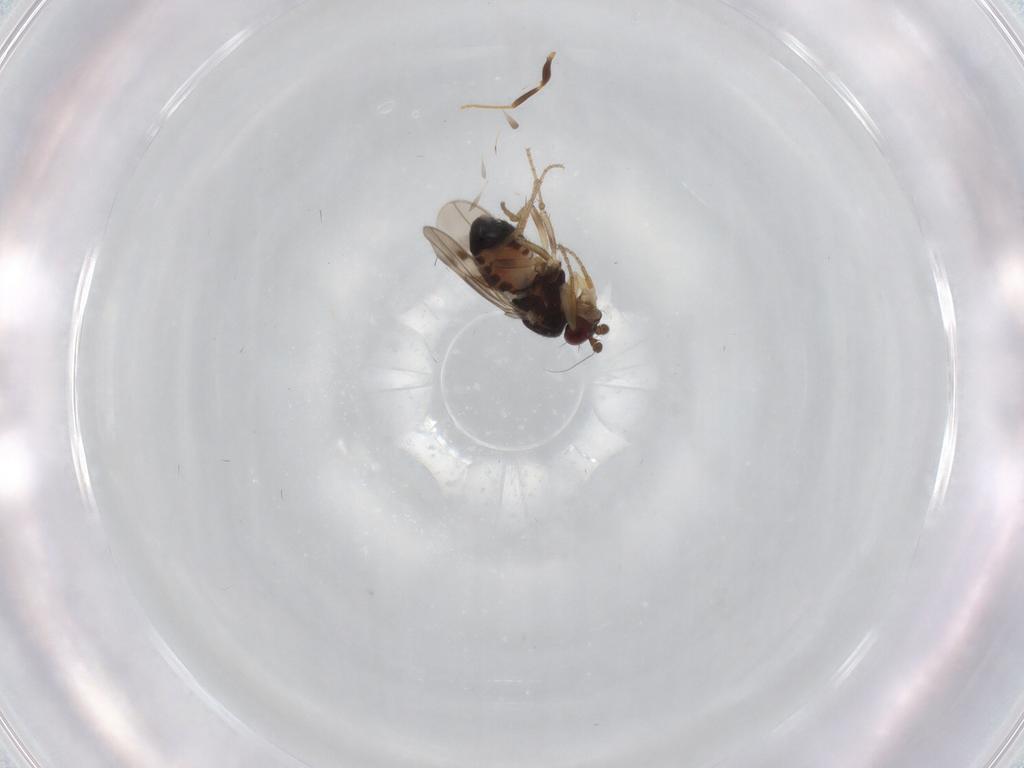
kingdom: Animalia
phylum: Arthropoda
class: Insecta
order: Diptera
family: Sphaeroceridae
